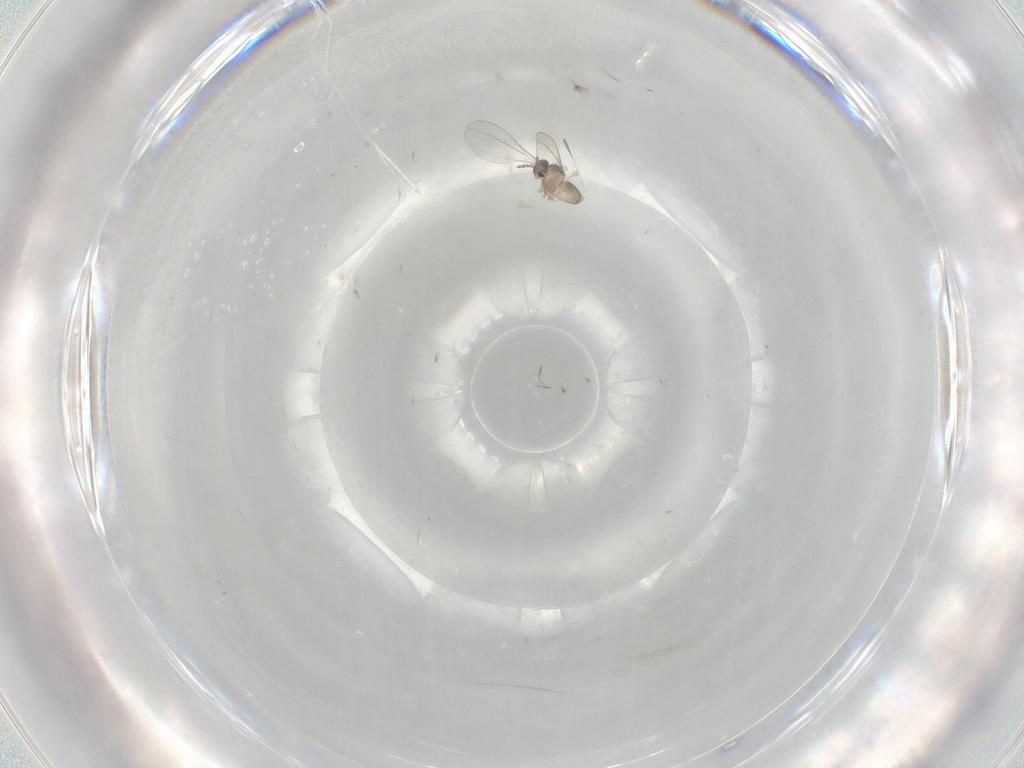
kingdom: Animalia
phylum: Arthropoda
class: Insecta
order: Diptera
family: Cecidomyiidae
